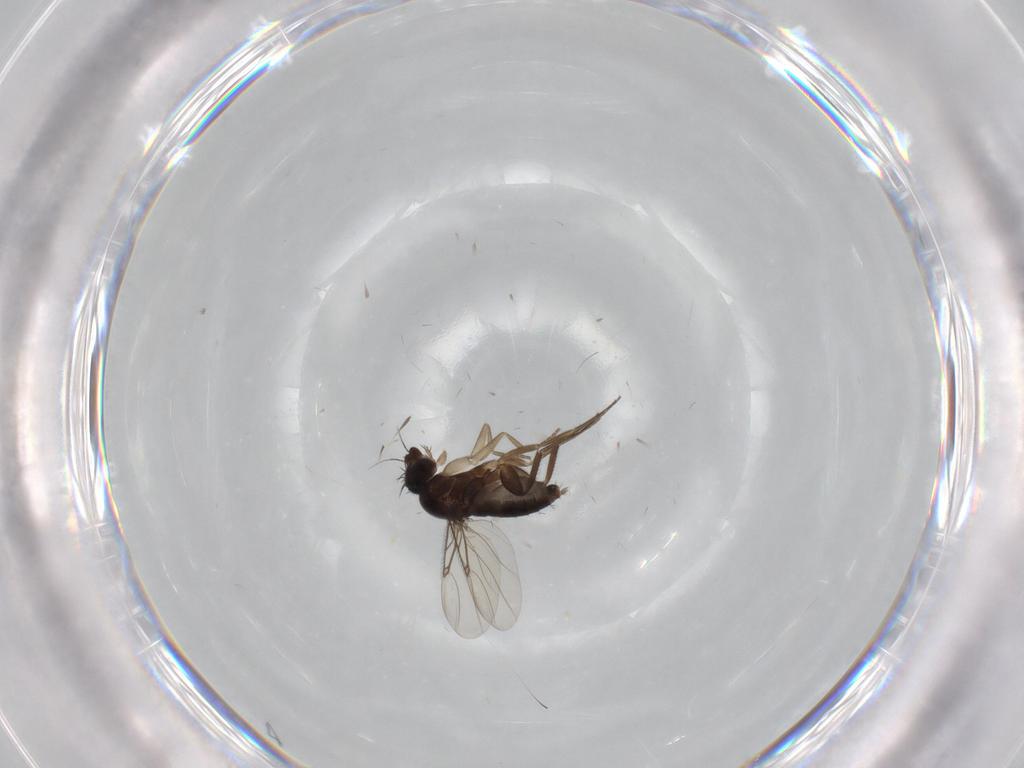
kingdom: Animalia
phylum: Arthropoda
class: Insecta
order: Diptera
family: Phoridae
